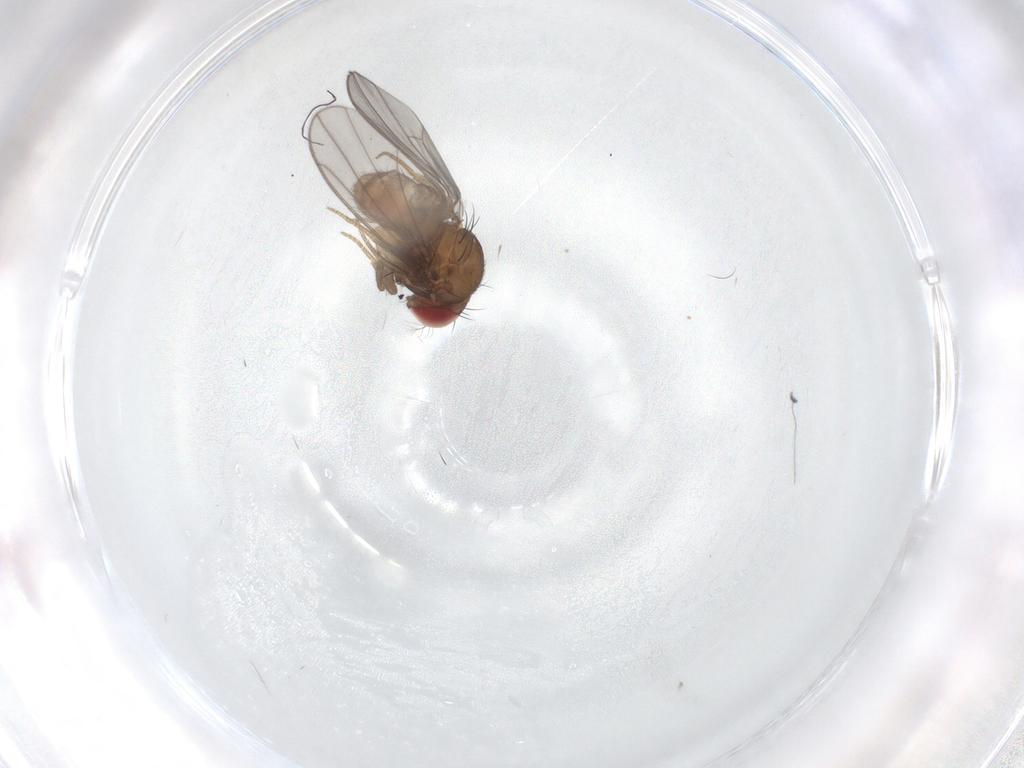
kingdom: Animalia
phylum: Arthropoda
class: Insecta
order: Diptera
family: Drosophilidae
